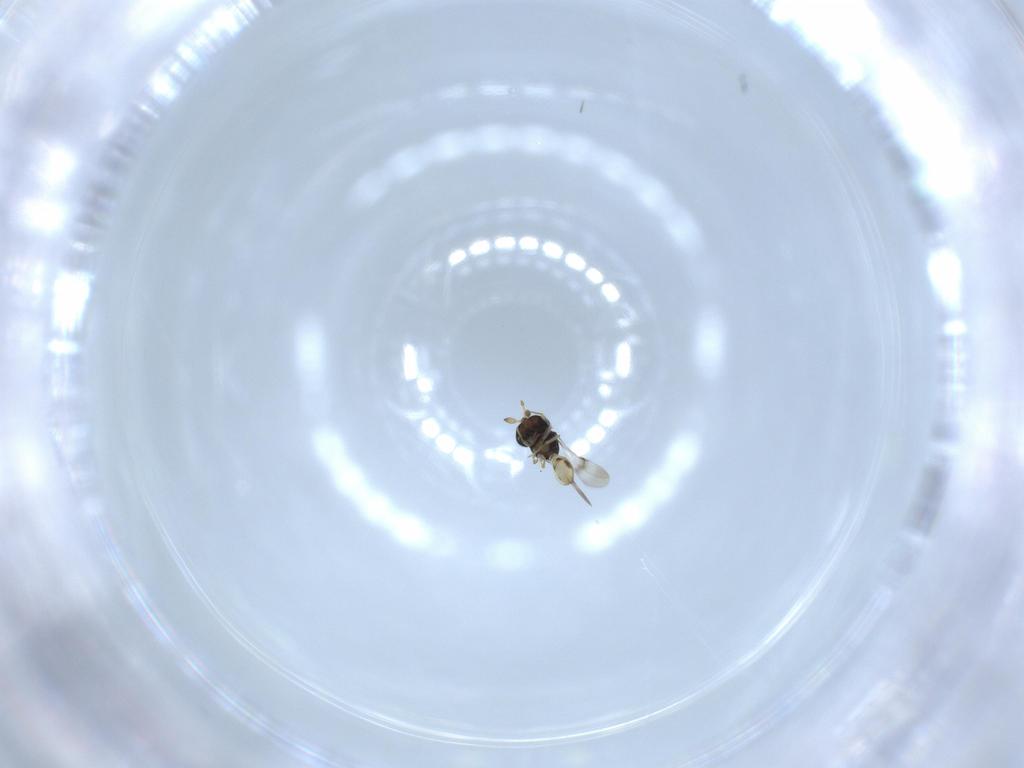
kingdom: Animalia
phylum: Arthropoda
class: Insecta
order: Hymenoptera
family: Scelionidae
